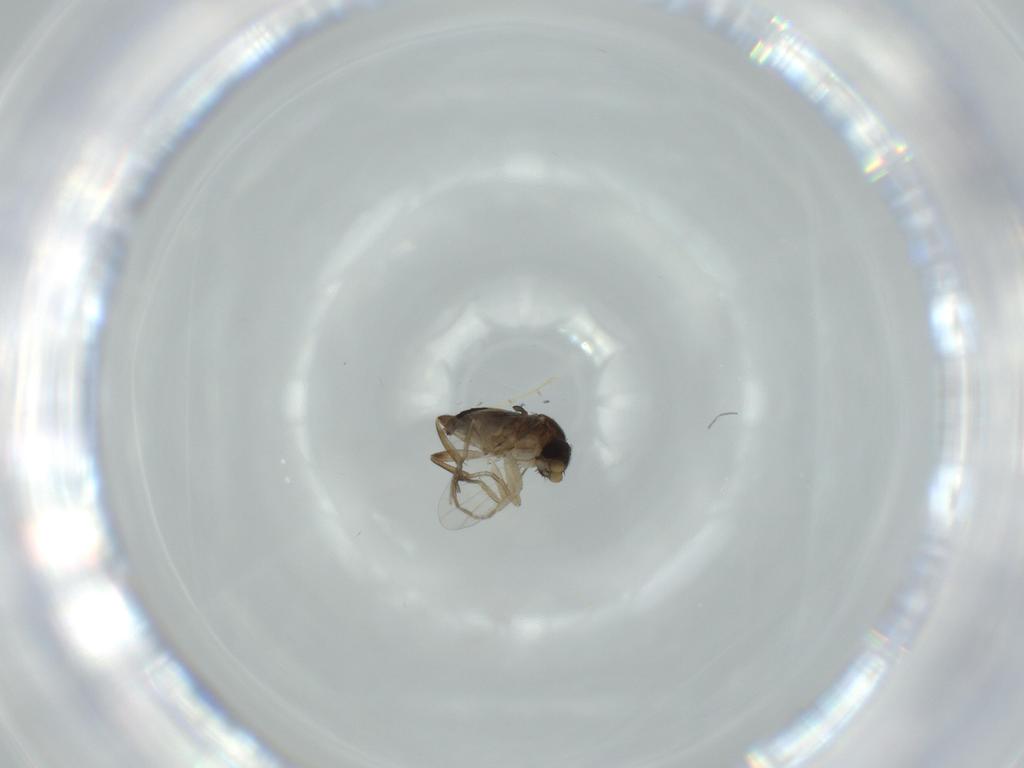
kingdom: Animalia
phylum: Arthropoda
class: Insecta
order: Diptera
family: Phoridae
